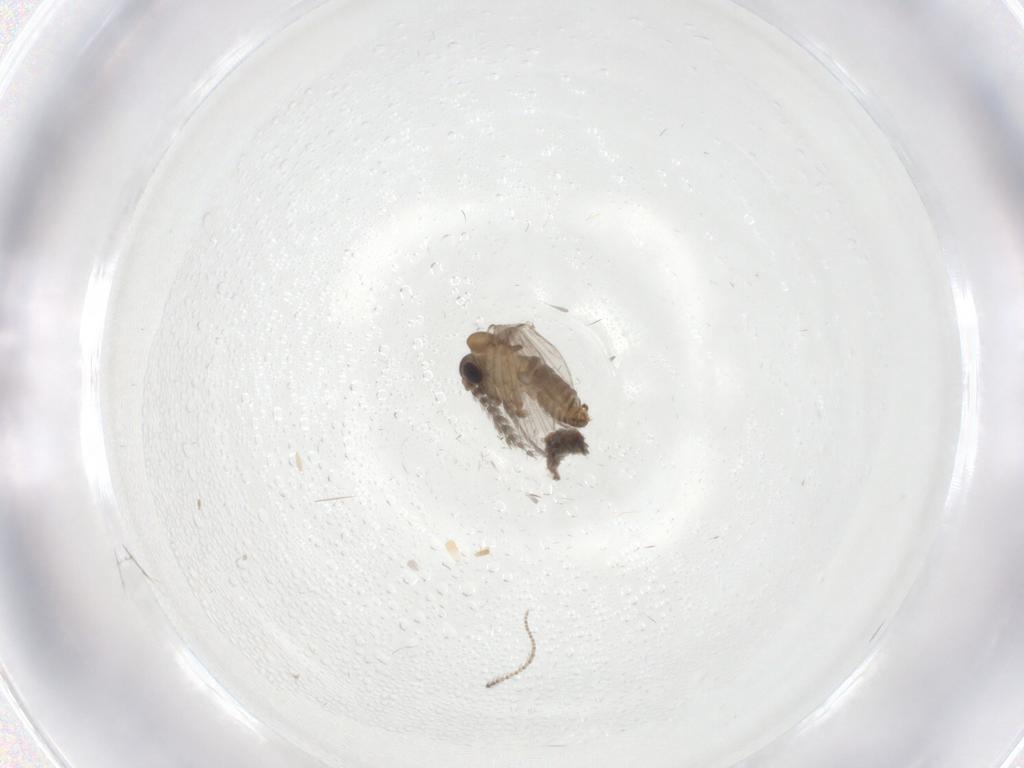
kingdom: Animalia
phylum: Arthropoda
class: Insecta
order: Diptera
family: Psychodidae
